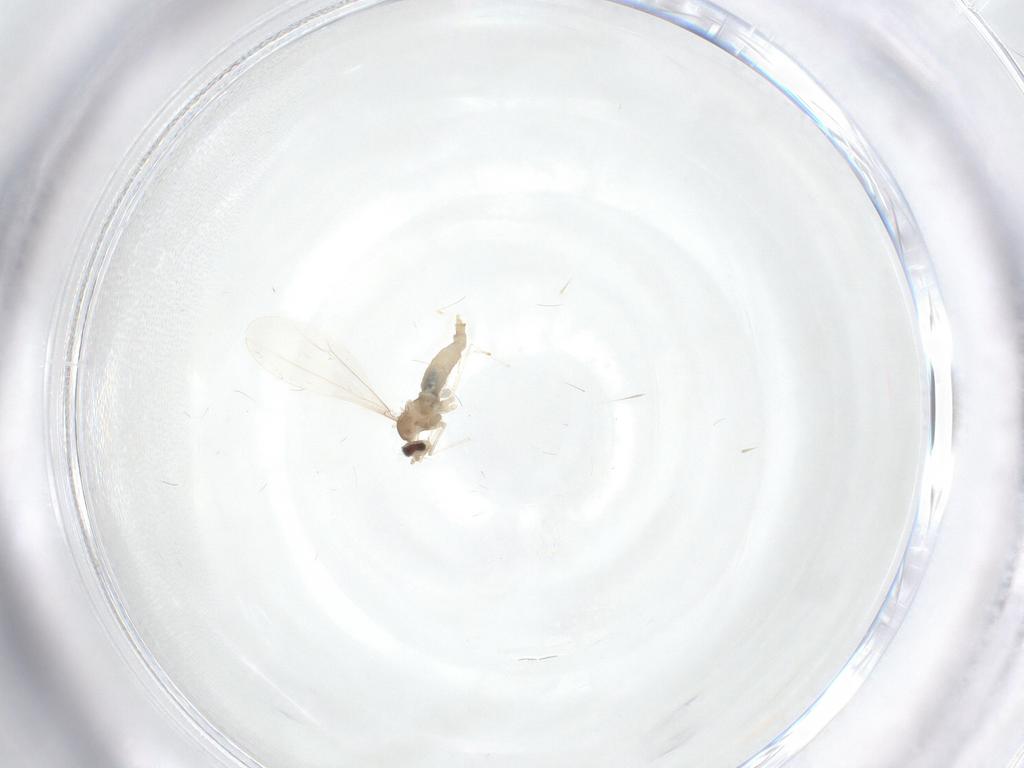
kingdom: Animalia
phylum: Arthropoda
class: Insecta
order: Diptera
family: Cecidomyiidae
